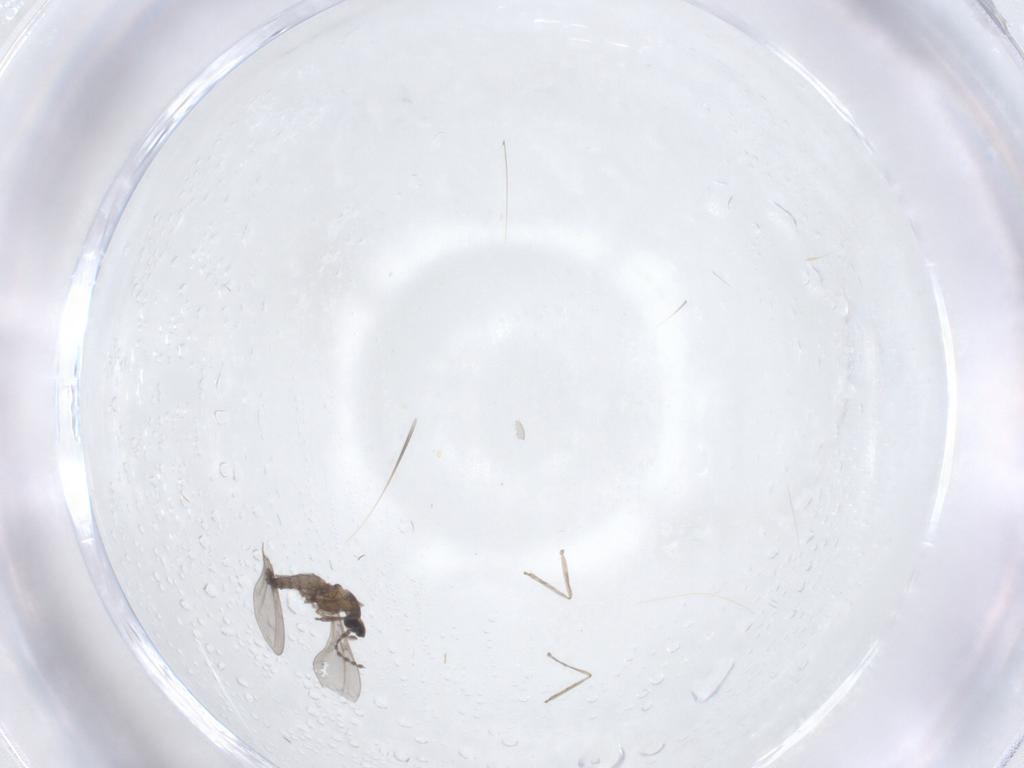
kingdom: Animalia
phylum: Arthropoda
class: Insecta
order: Diptera
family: Cecidomyiidae
